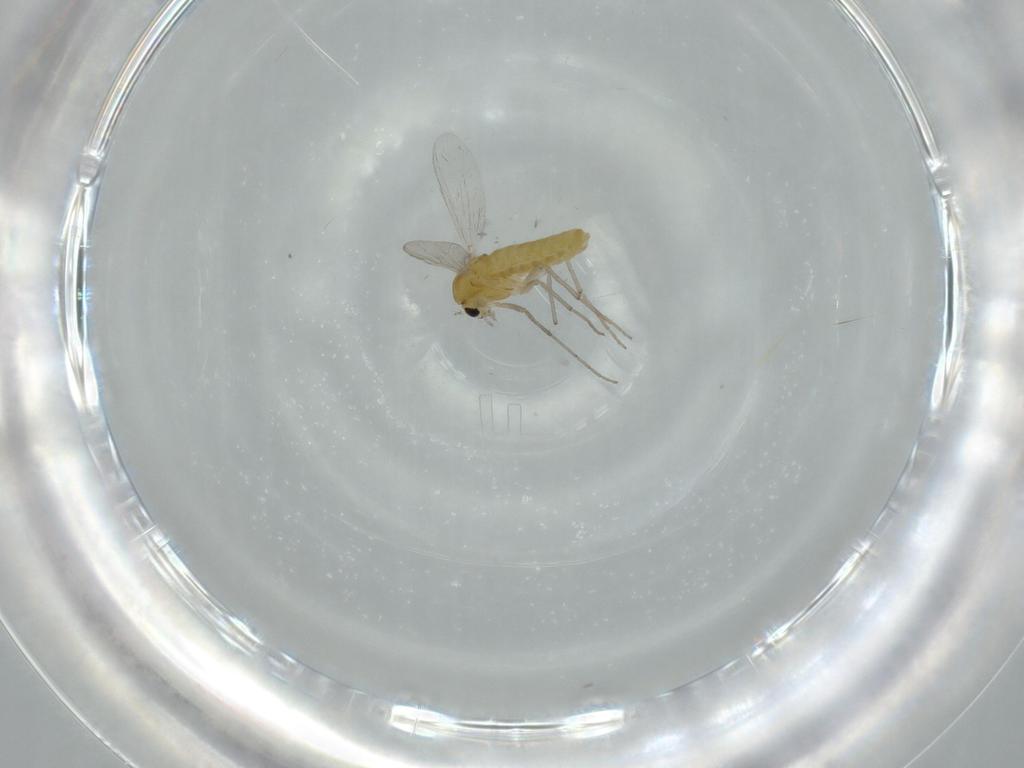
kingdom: Animalia
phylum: Arthropoda
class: Insecta
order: Diptera
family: Chironomidae
